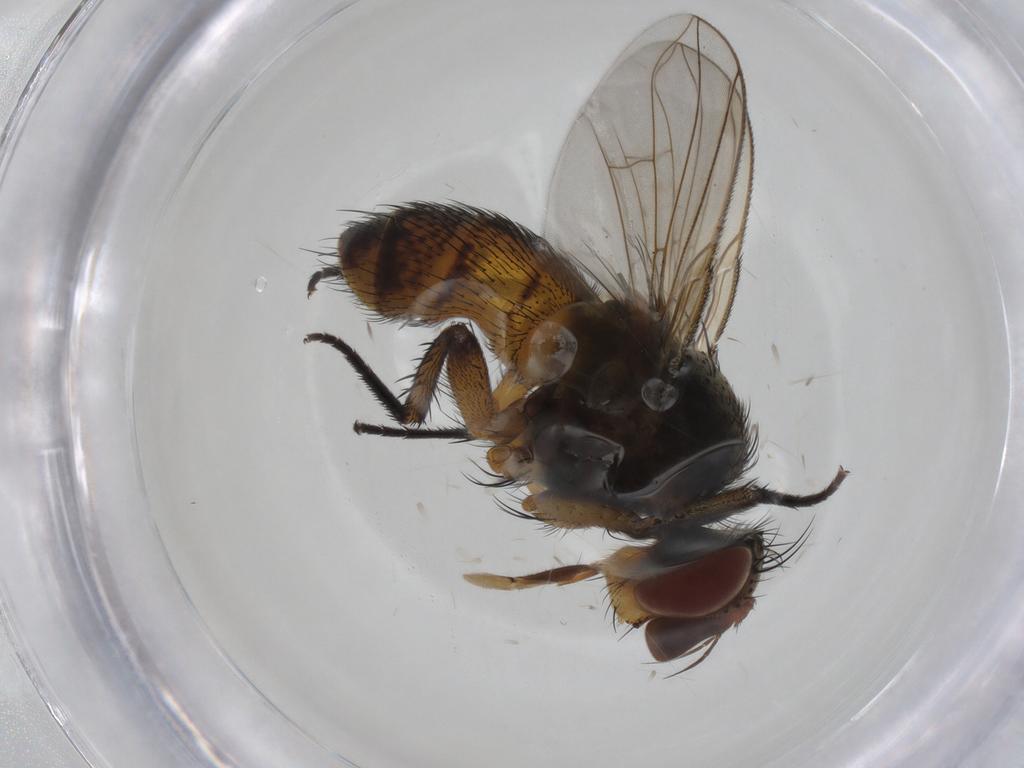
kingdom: Animalia
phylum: Arthropoda
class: Insecta
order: Diptera
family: Tachinidae
